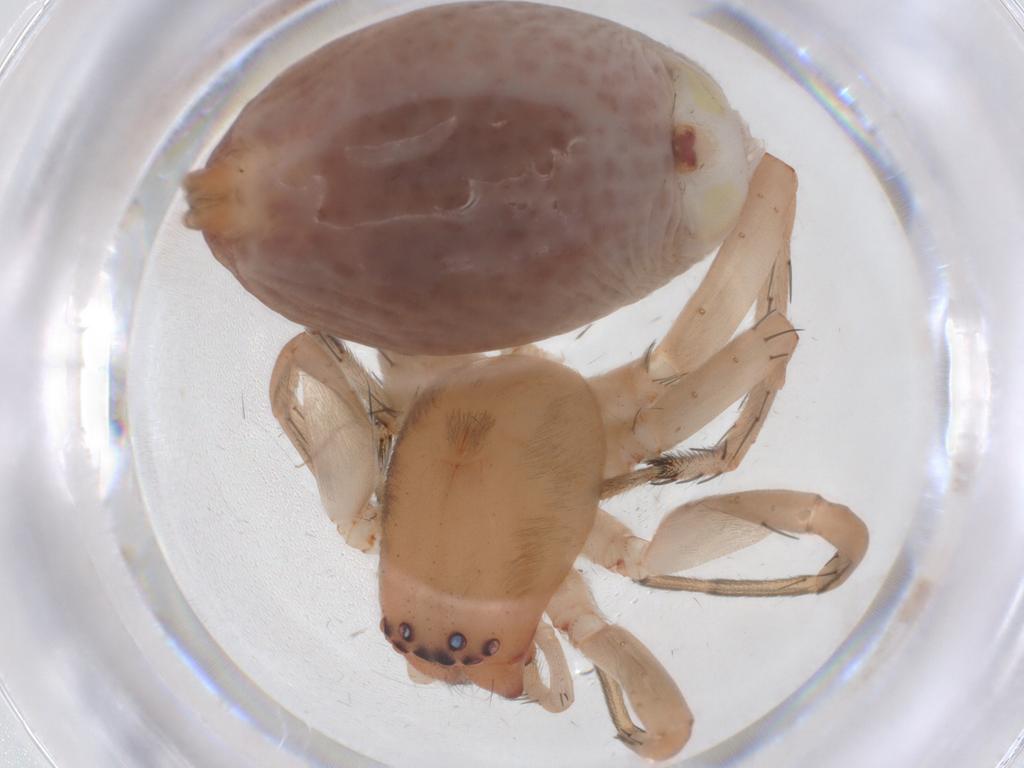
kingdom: Animalia
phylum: Arthropoda
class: Arachnida
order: Araneae
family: Clubionidae
